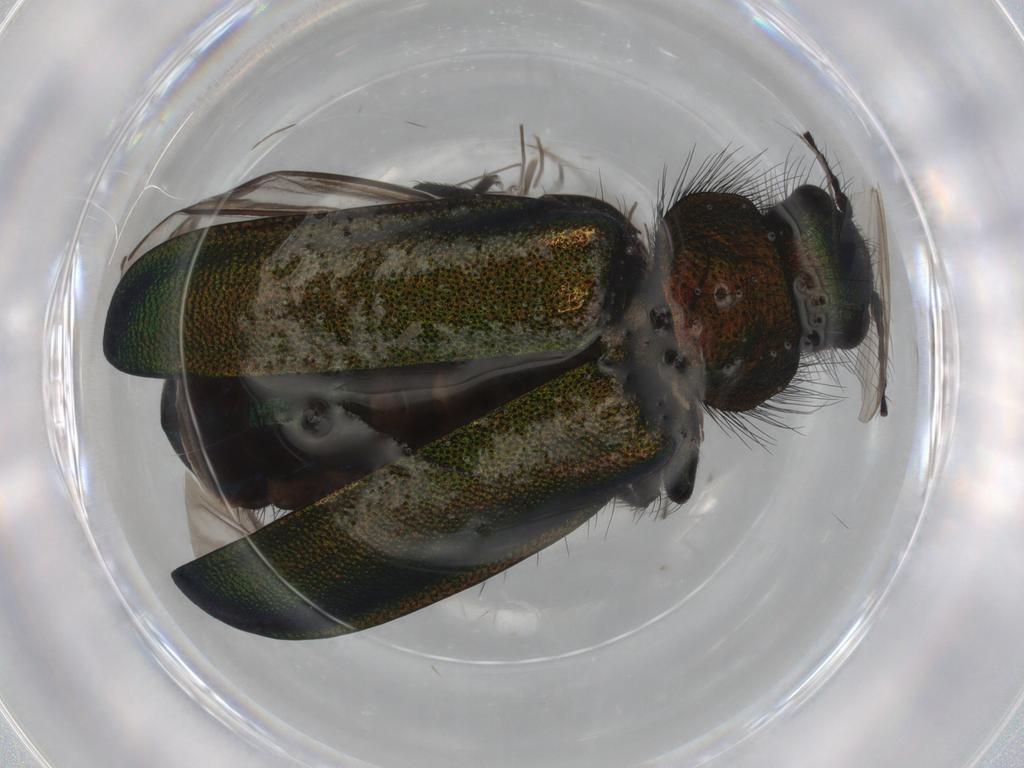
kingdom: Animalia
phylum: Arthropoda
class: Insecta
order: Coleoptera
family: Melyridae
